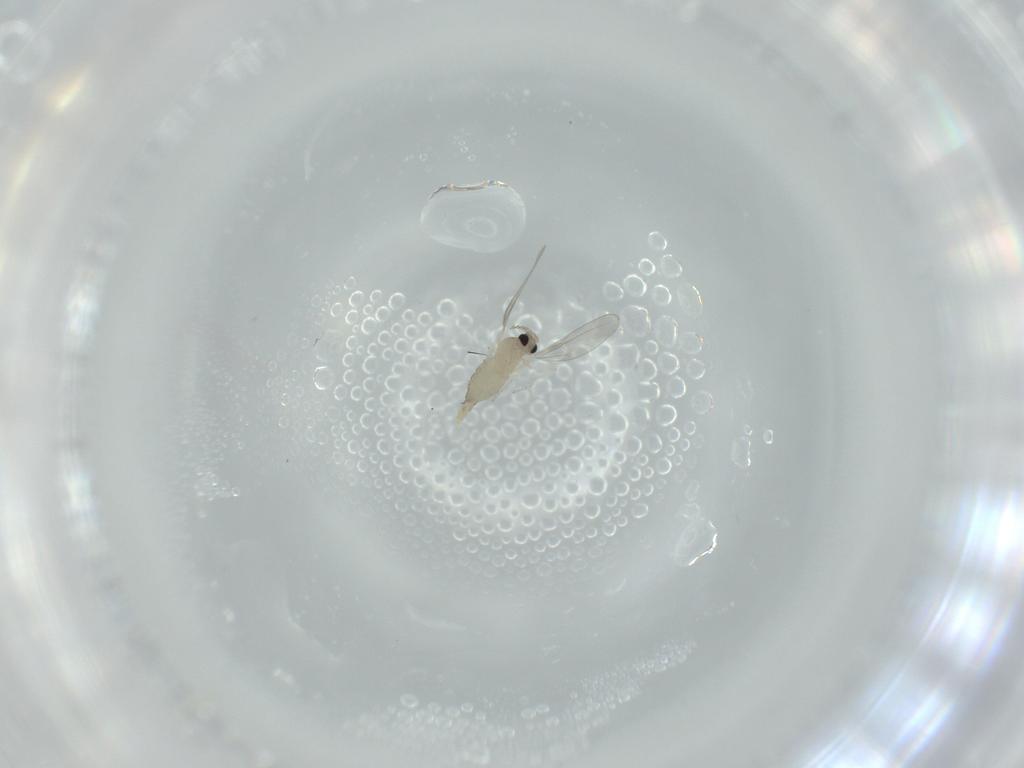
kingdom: Animalia
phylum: Arthropoda
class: Insecta
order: Diptera
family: Cecidomyiidae
